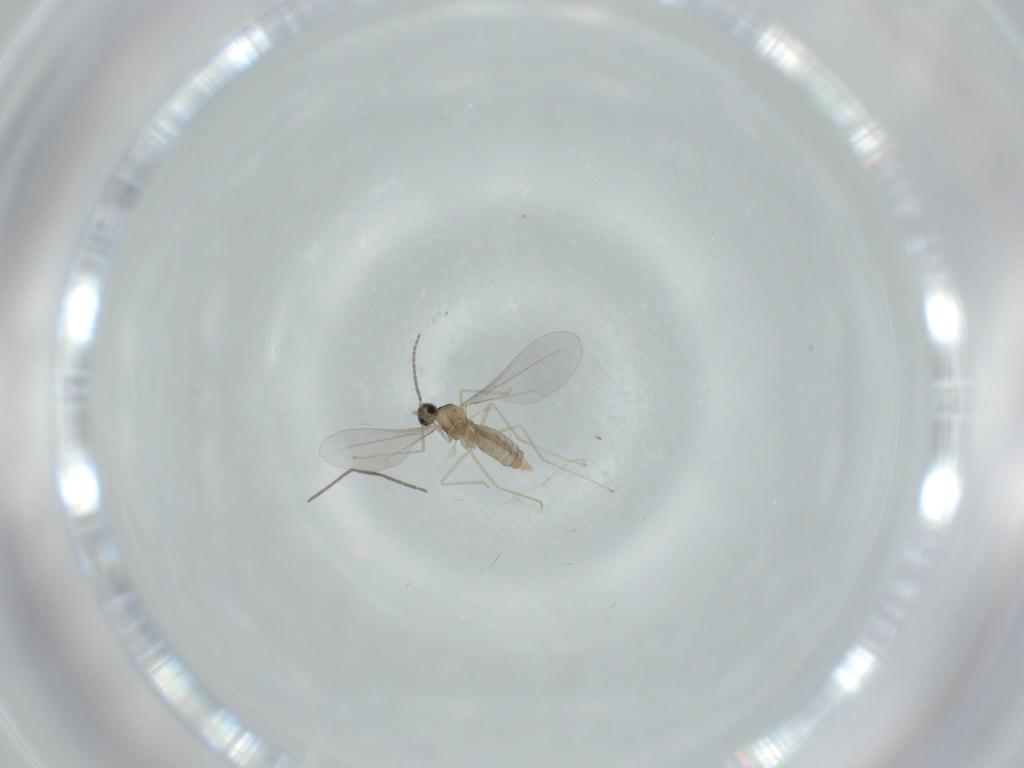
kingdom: Animalia
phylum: Arthropoda
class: Insecta
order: Diptera
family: Cecidomyiidae
